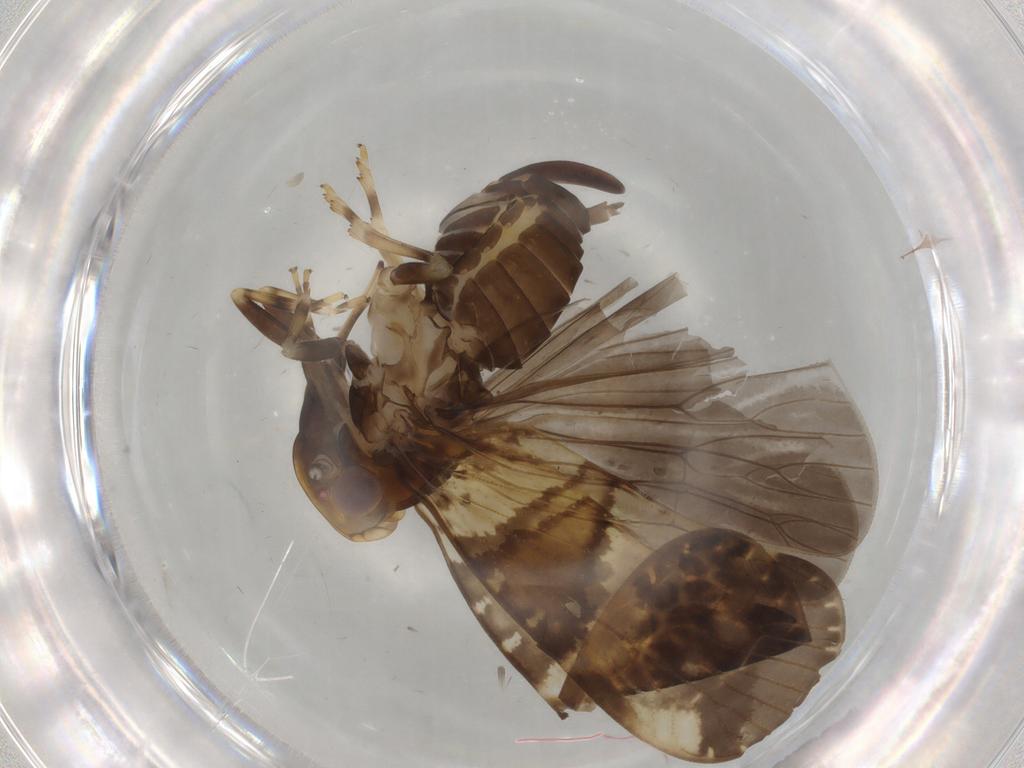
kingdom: Animalia
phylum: Arthropoda
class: Insecta
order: Hemiptera
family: Cixiidae
